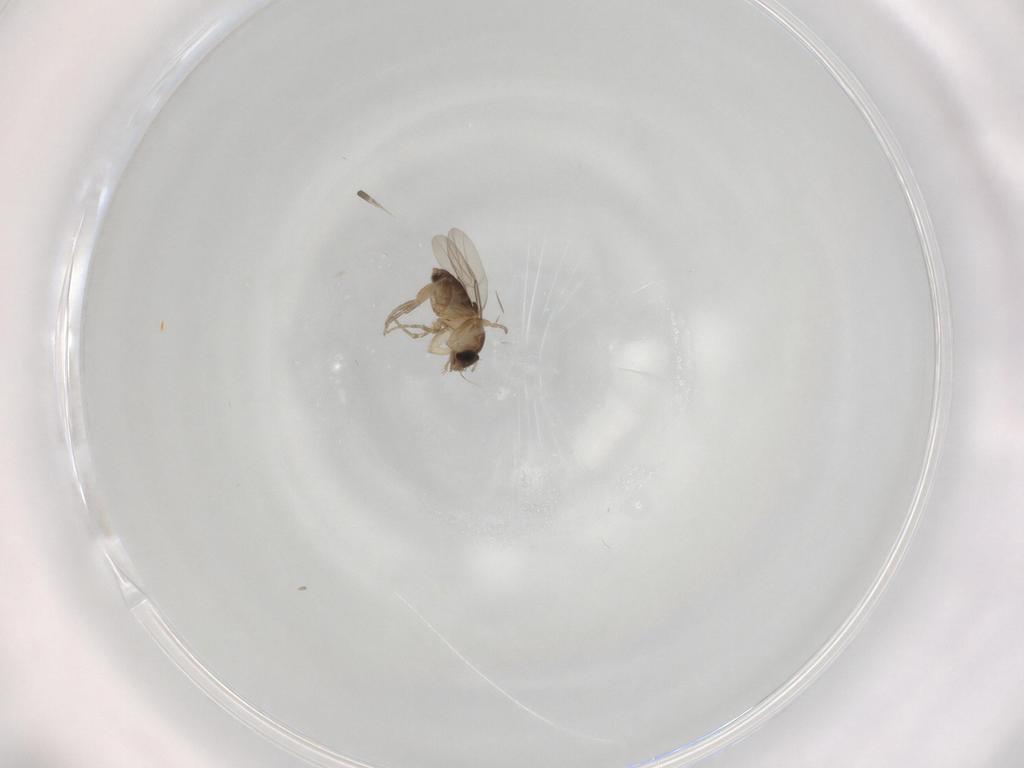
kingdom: Animalia
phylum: Arthropoda
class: Insecta
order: Diptera
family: Phoridae
